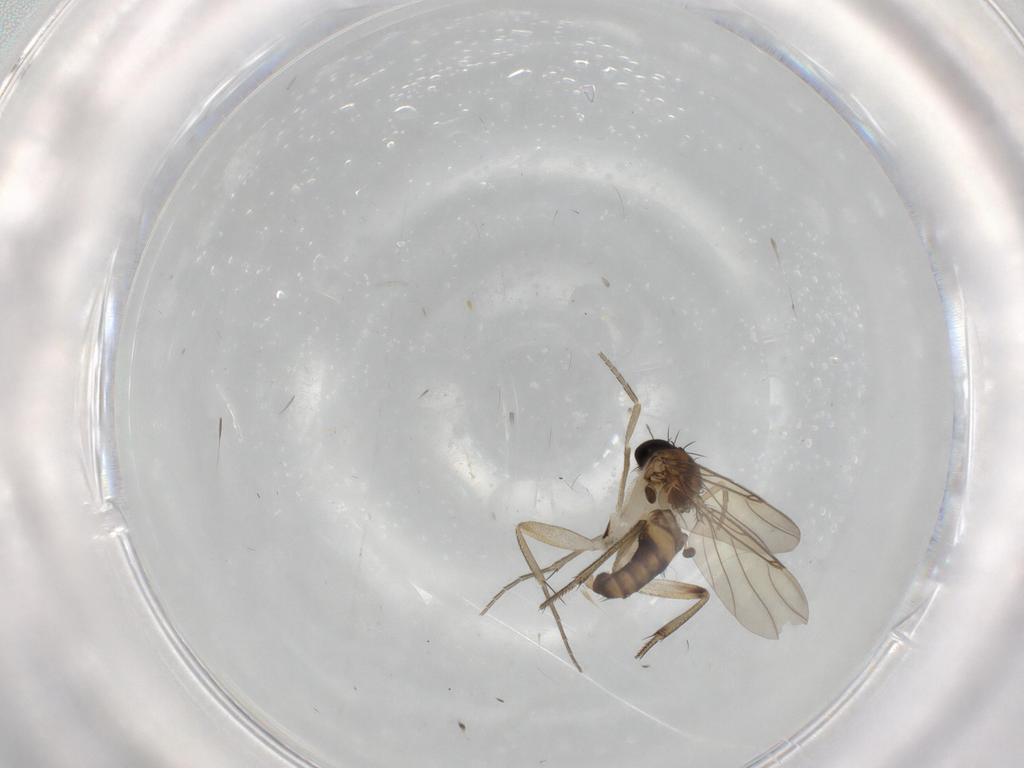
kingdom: Animalia
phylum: Arthropoda
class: Insecta
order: Diptera
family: Phoridae
